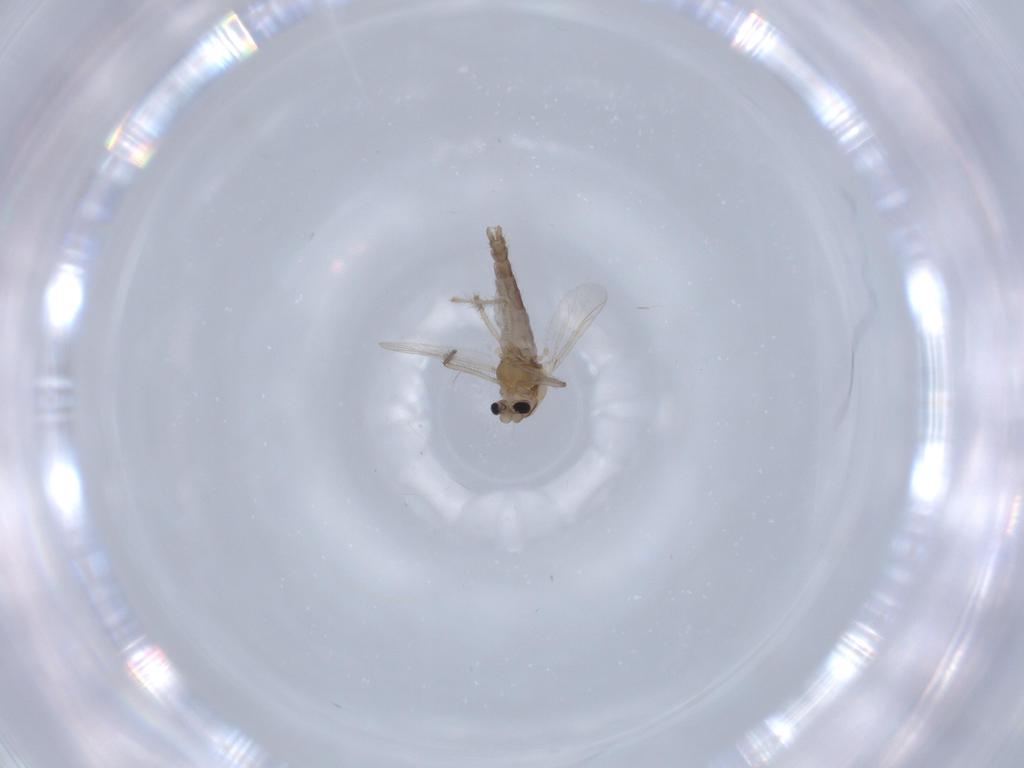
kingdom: Animalia
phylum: Arthropoda
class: Insecta
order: Diptera
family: Chironomidae
